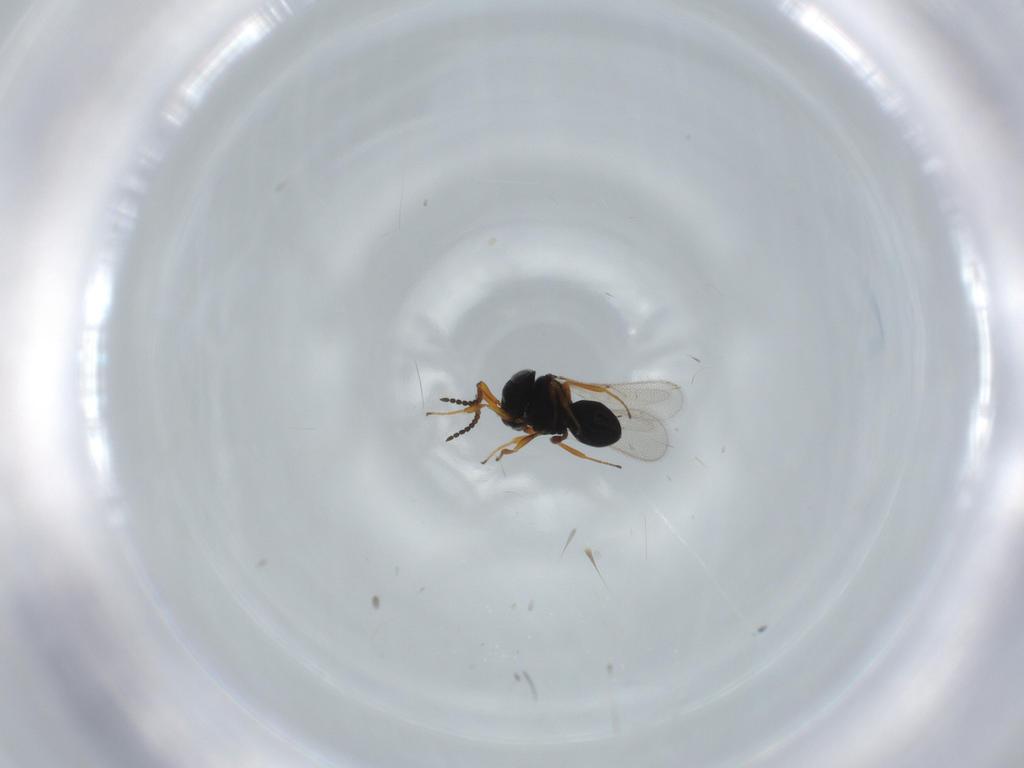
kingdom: Animalia
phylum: Arthropoda
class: Insecta
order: Hymenoptera
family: Scelionidae
